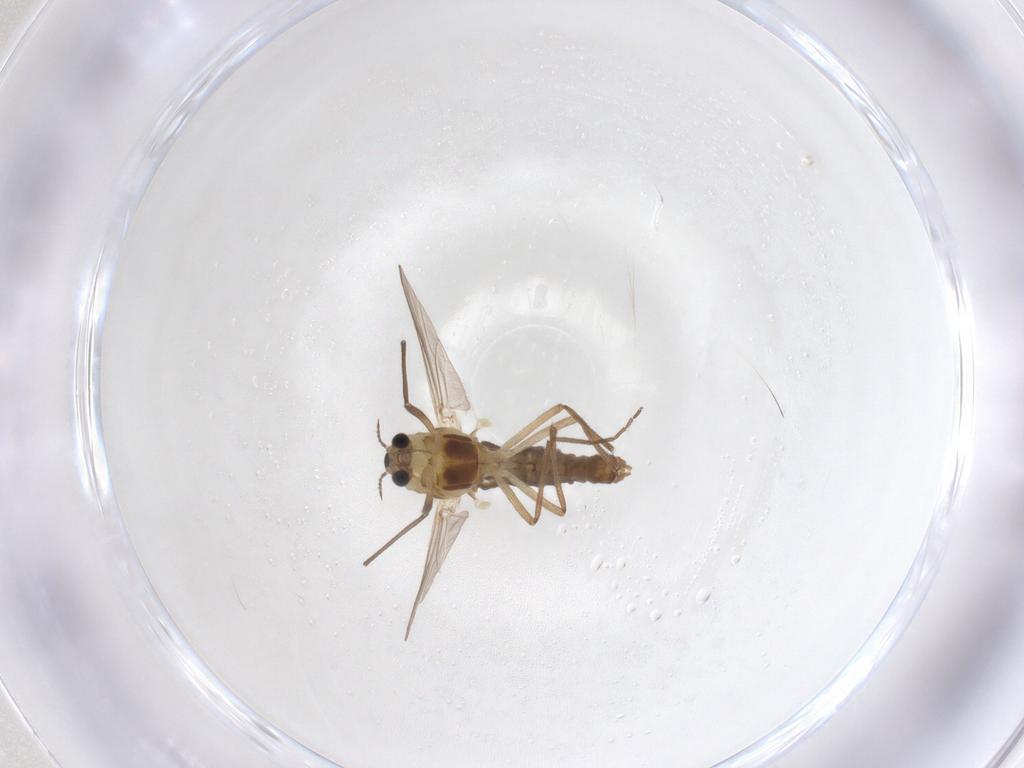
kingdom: Animalia
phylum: Arthropoda
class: Insecta
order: Diptera
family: Chironomidae
